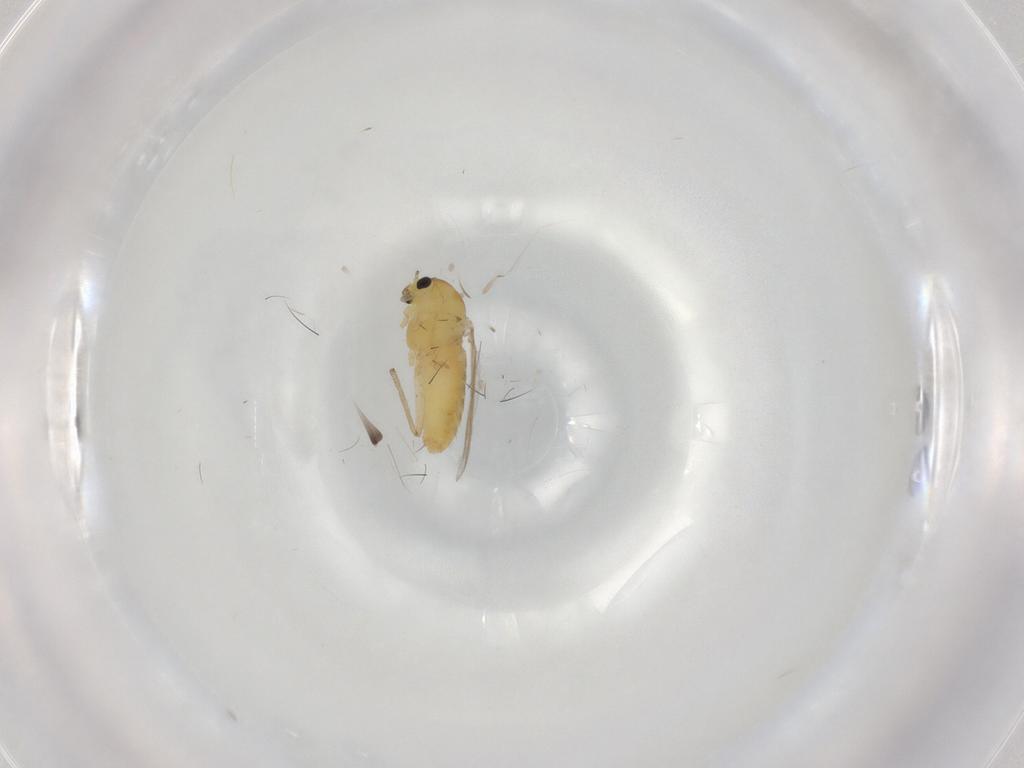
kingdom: Animalia
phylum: Arthropoda
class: Insecta
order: Diptera
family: Chironomidae
